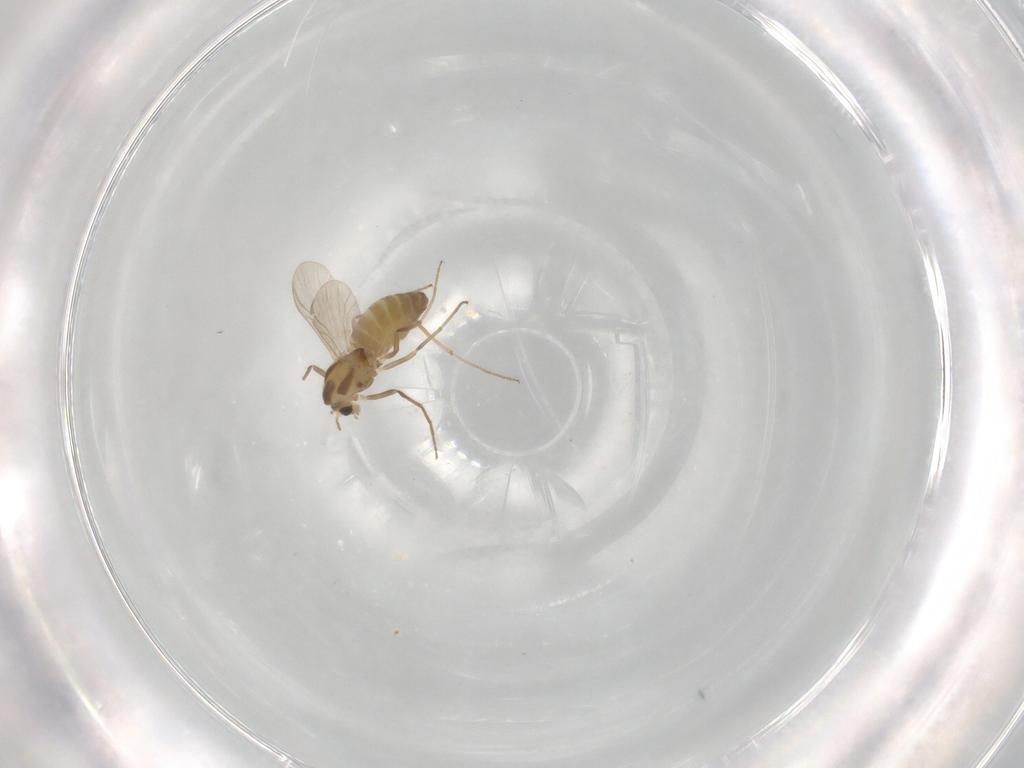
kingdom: Animalia
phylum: Arthropoda
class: Insecta
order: Diptera
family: Drosophilidae
